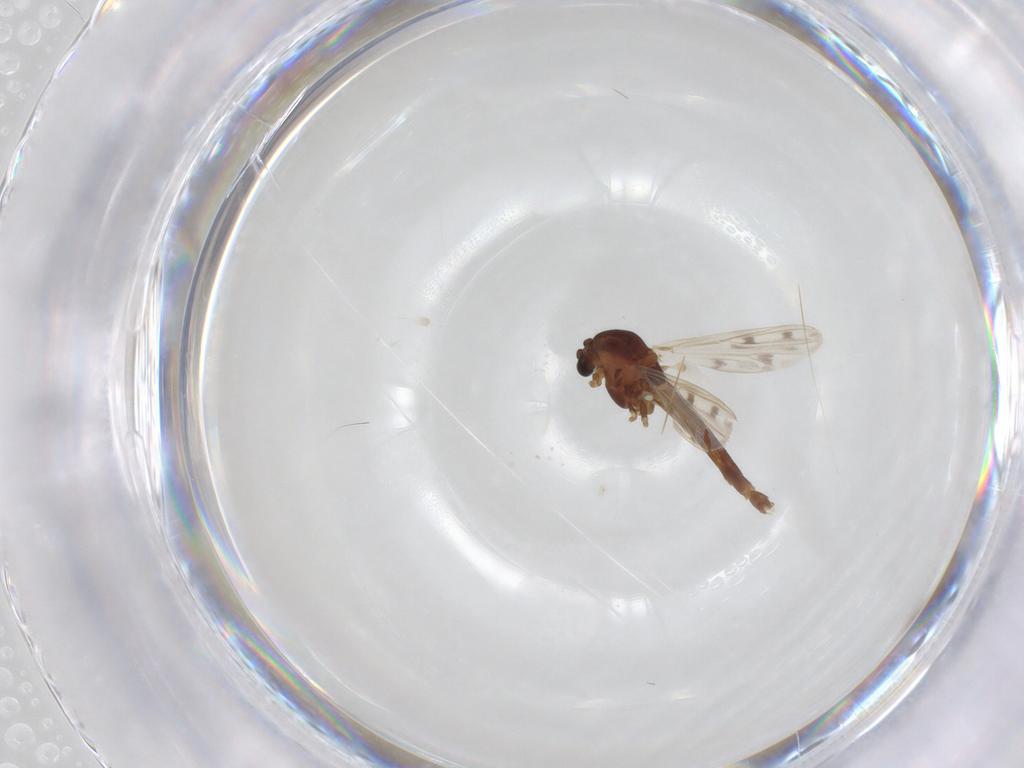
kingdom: Animalia
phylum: Arthropoda
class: Insecta
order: Diptera
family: Chironomidae
